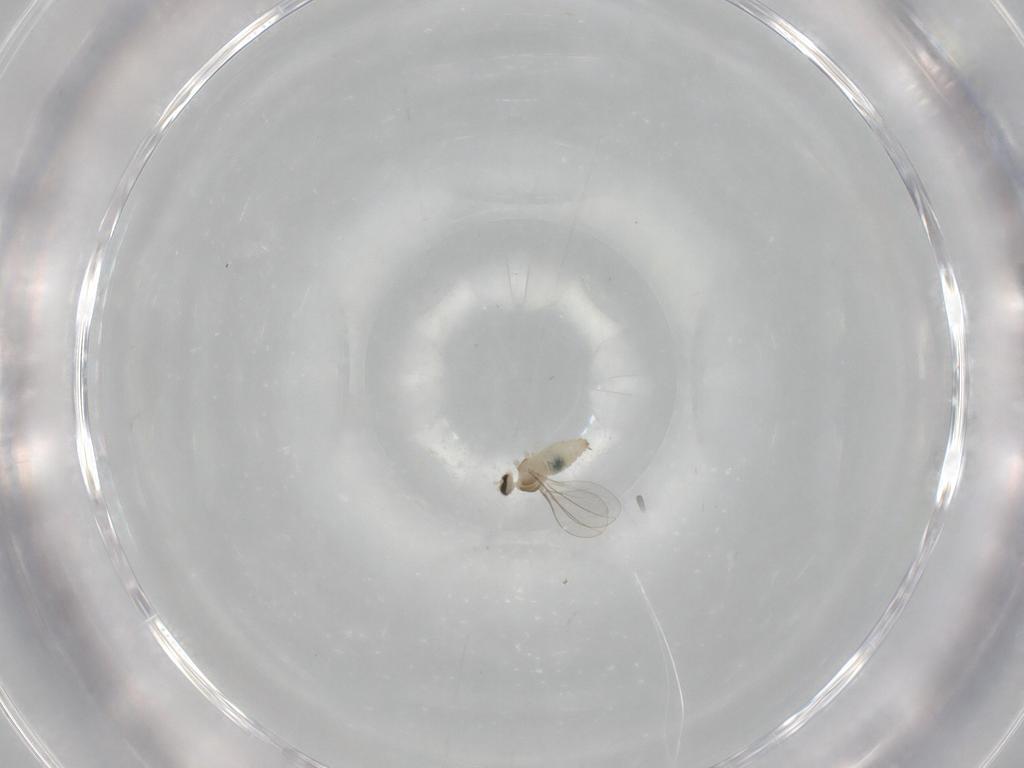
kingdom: Animalia
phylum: Arthropoda
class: Insecta
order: Diptera
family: Limoniidae
